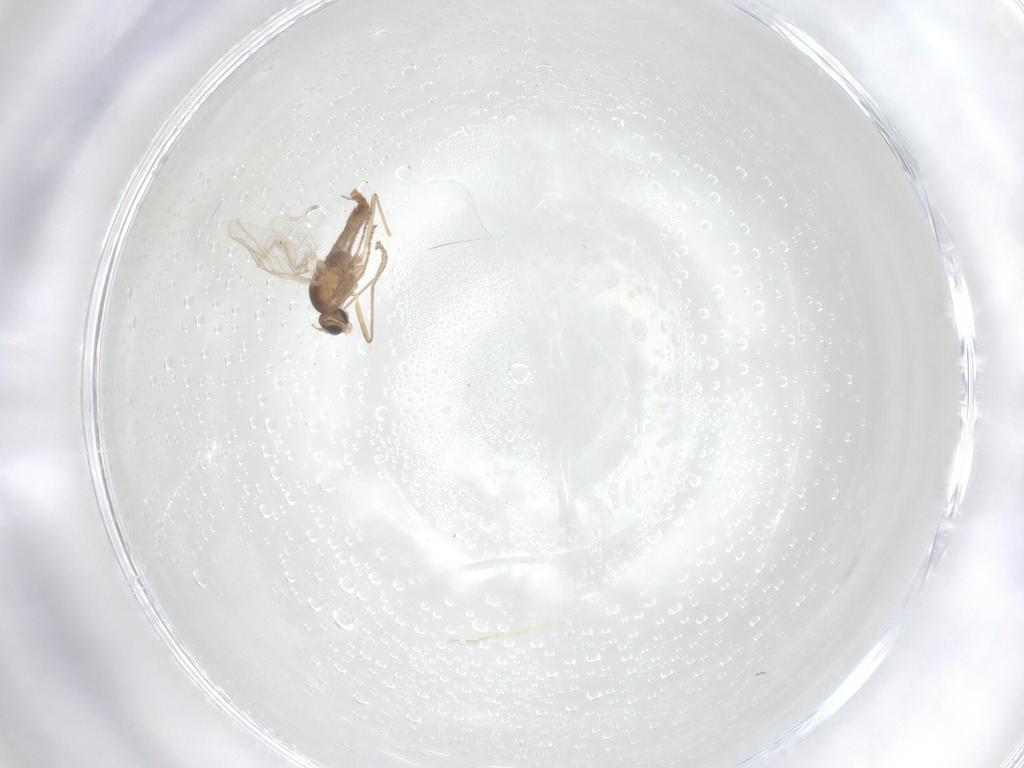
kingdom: Animalia
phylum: Arthropoda
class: Insecta
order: Diptera
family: Cecidomyiidae
